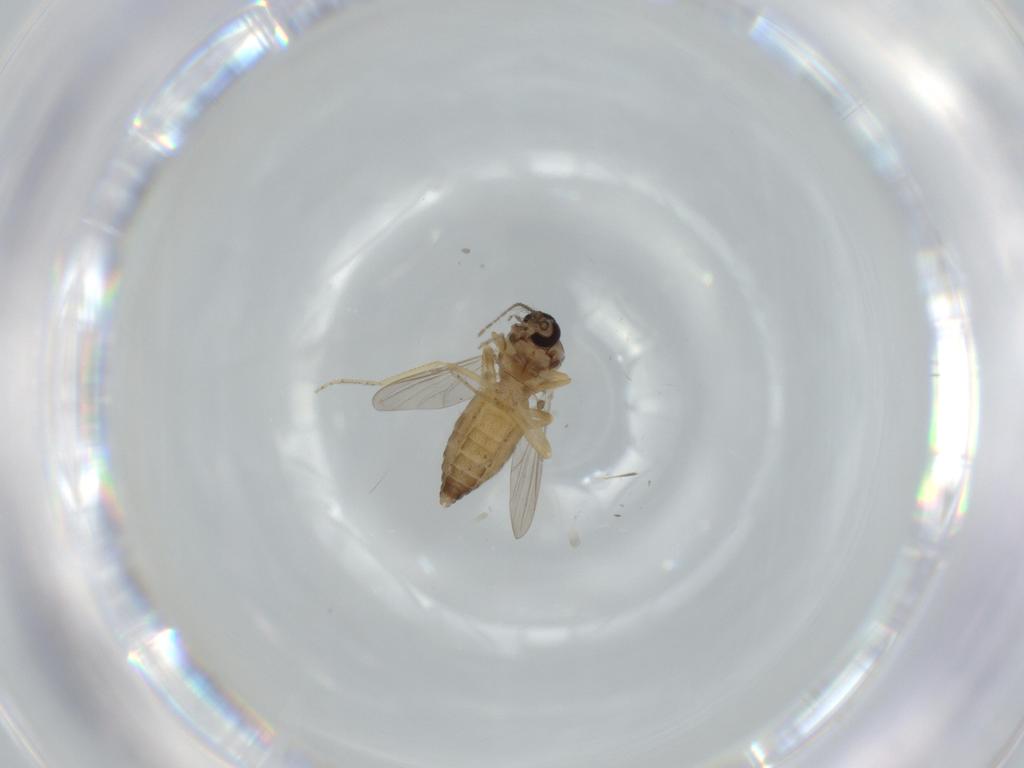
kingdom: Animalia
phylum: Arthropoda
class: Insecta
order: Diptera
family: Ceratopogonidae
